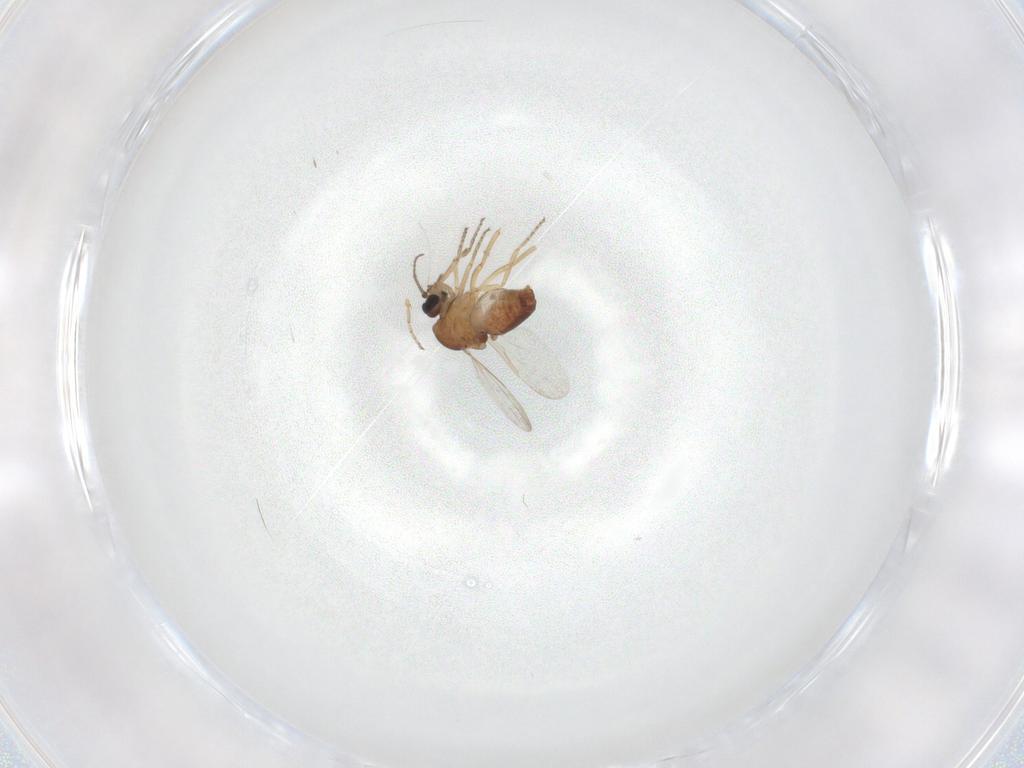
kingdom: Animalia
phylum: Arthropoda
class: Insecta
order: Diptera
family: Ceratopogonidae
